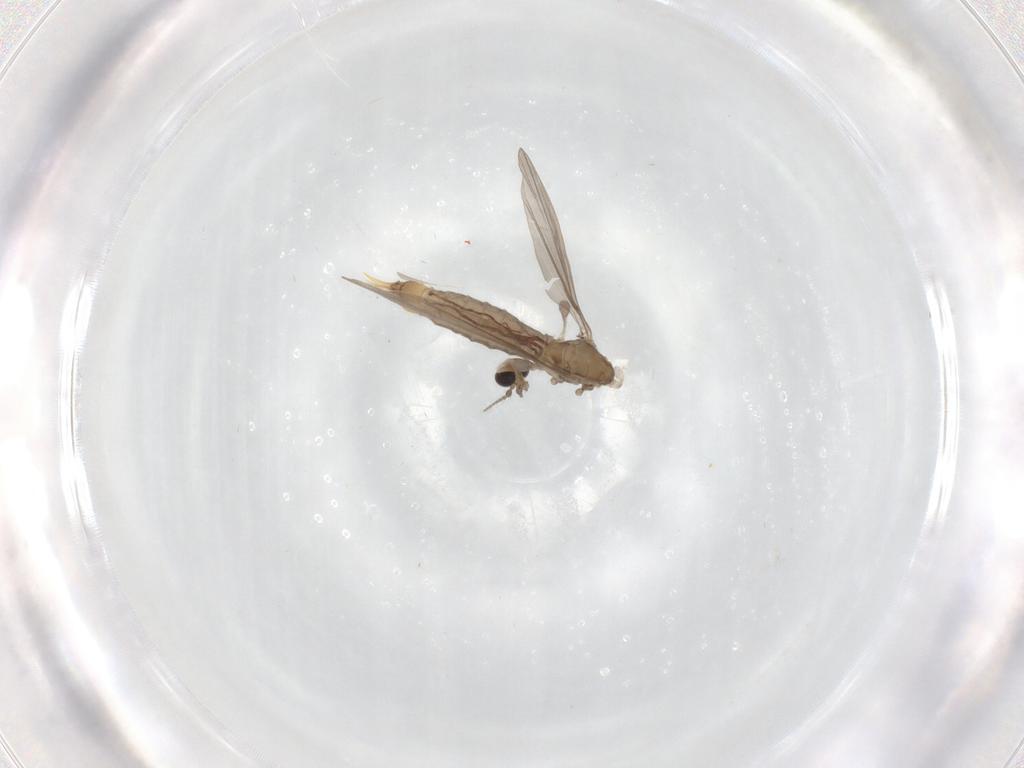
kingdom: Animalia
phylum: Arthropoda
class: Insecta
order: Diptera
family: Limoniidae
